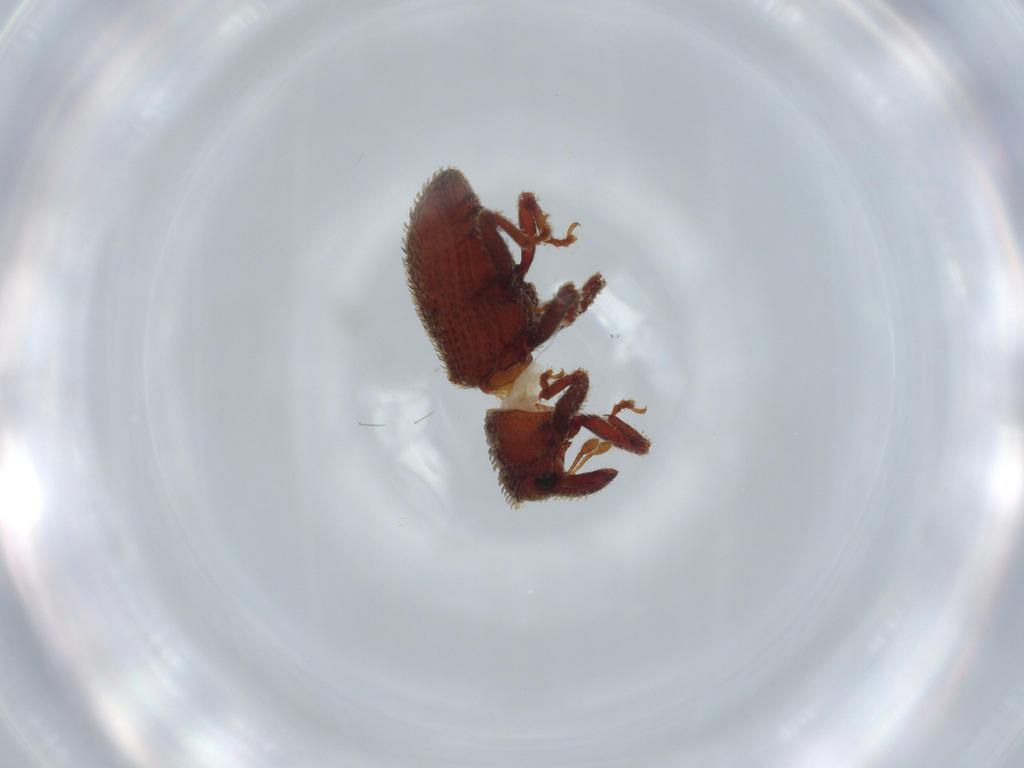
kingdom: Animalia
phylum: Arthropoda
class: Insecta
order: Coleoptera
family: Curculionidae
